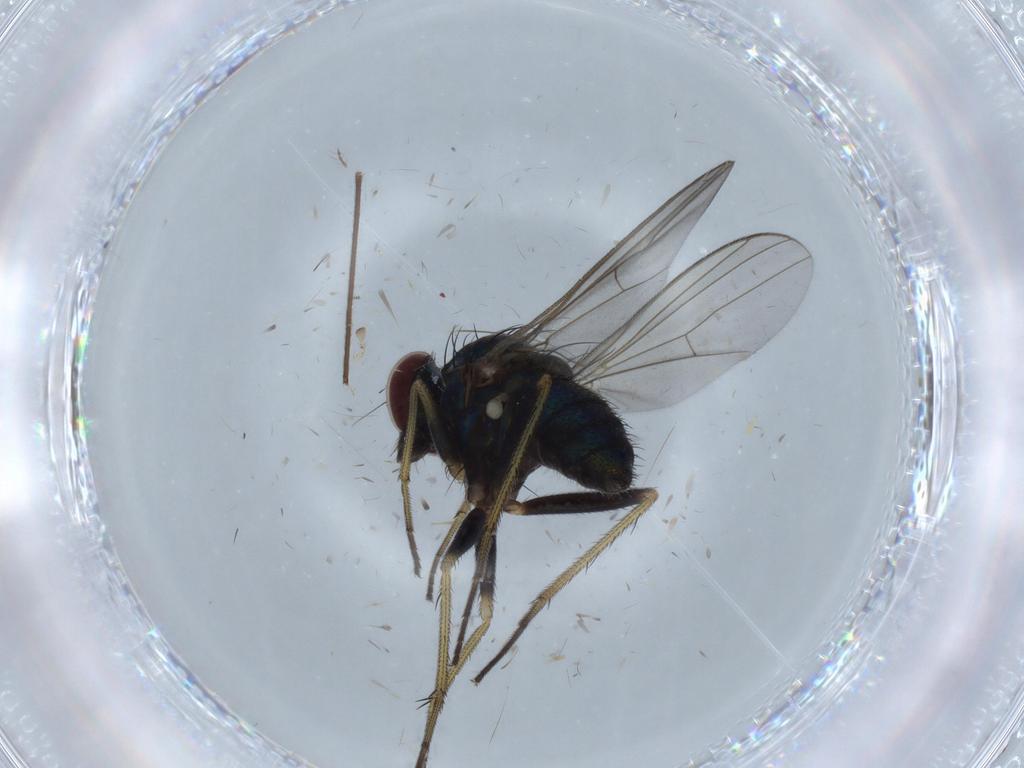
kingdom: Animalia
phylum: Arthropoda
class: Insecta
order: Diptera
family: Dolichopodidae
